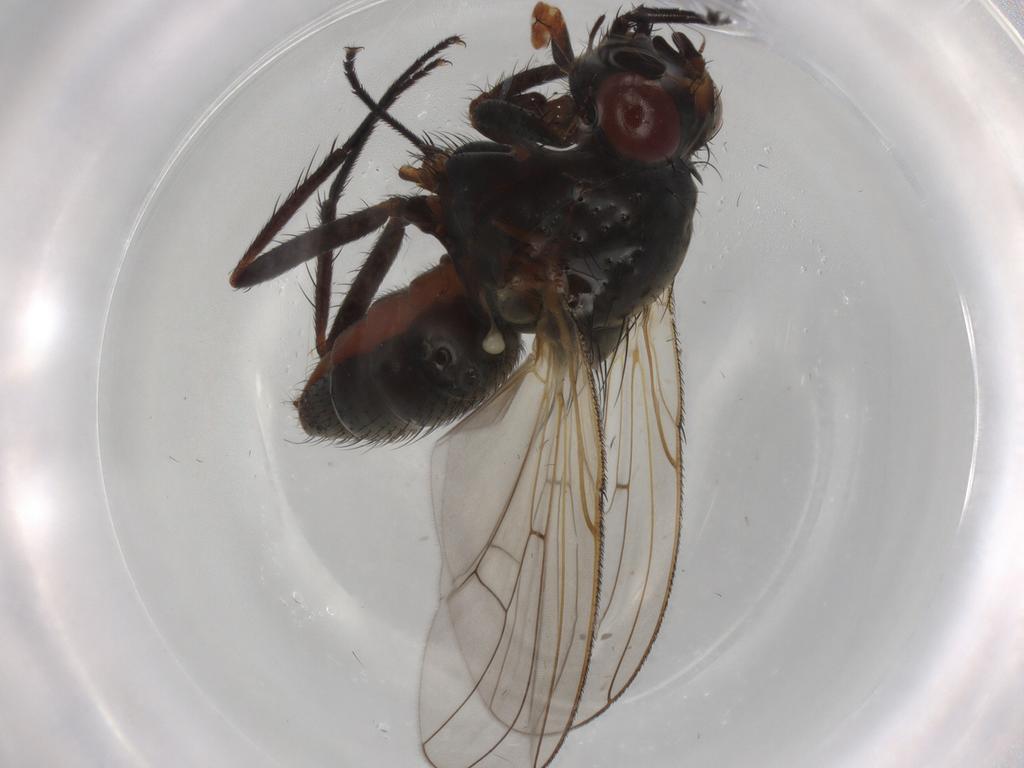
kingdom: Animalia
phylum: Arthropoda
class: Insecta
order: Diptera
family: Anthomyiidae
